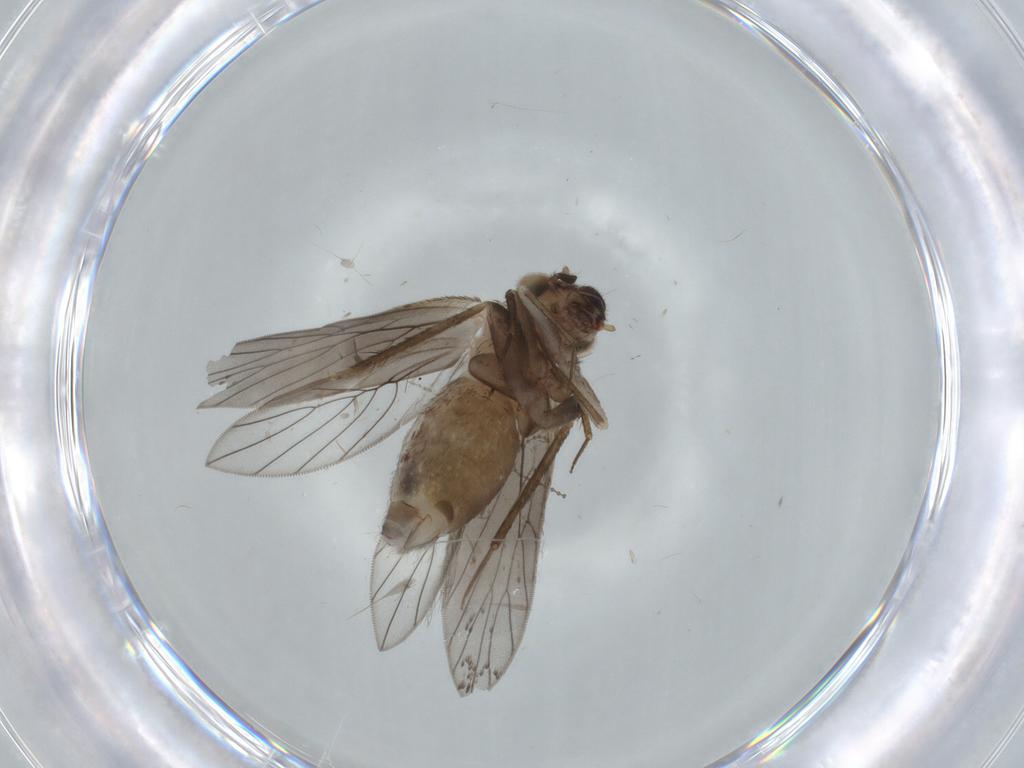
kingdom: Animalia
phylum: Arthropoda
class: Insecta
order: Psocodea
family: Lepidopsocidae
